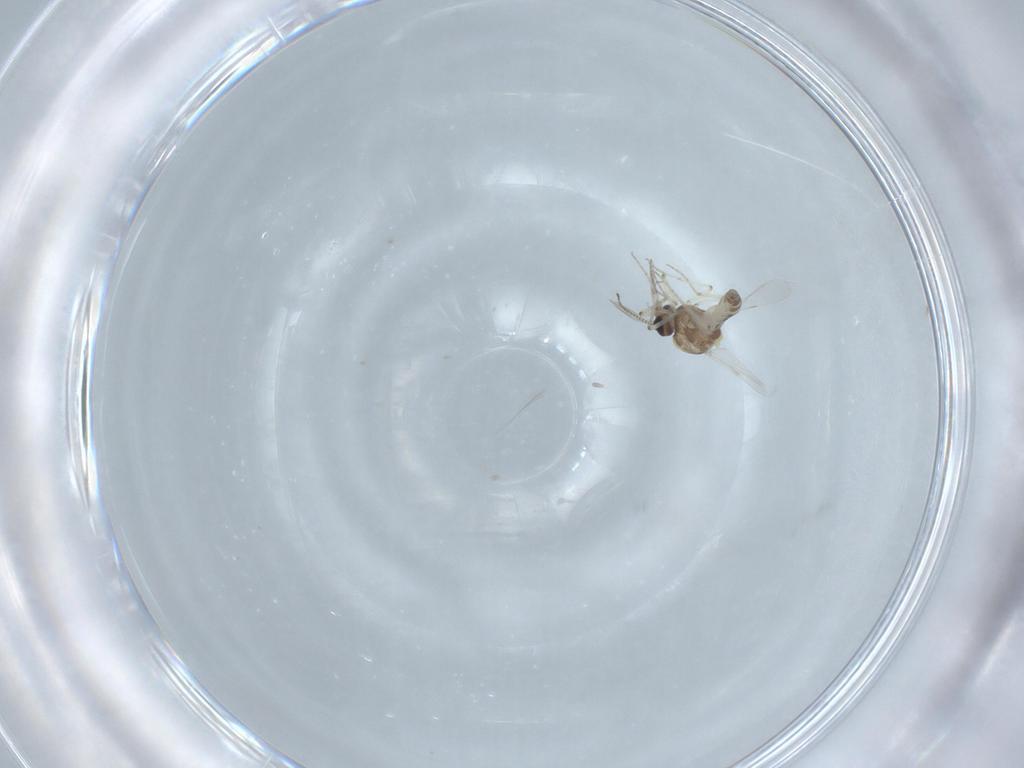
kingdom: Animalia
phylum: Arthropoda
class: Insecta
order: Diptera
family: Ceratopogonidae
